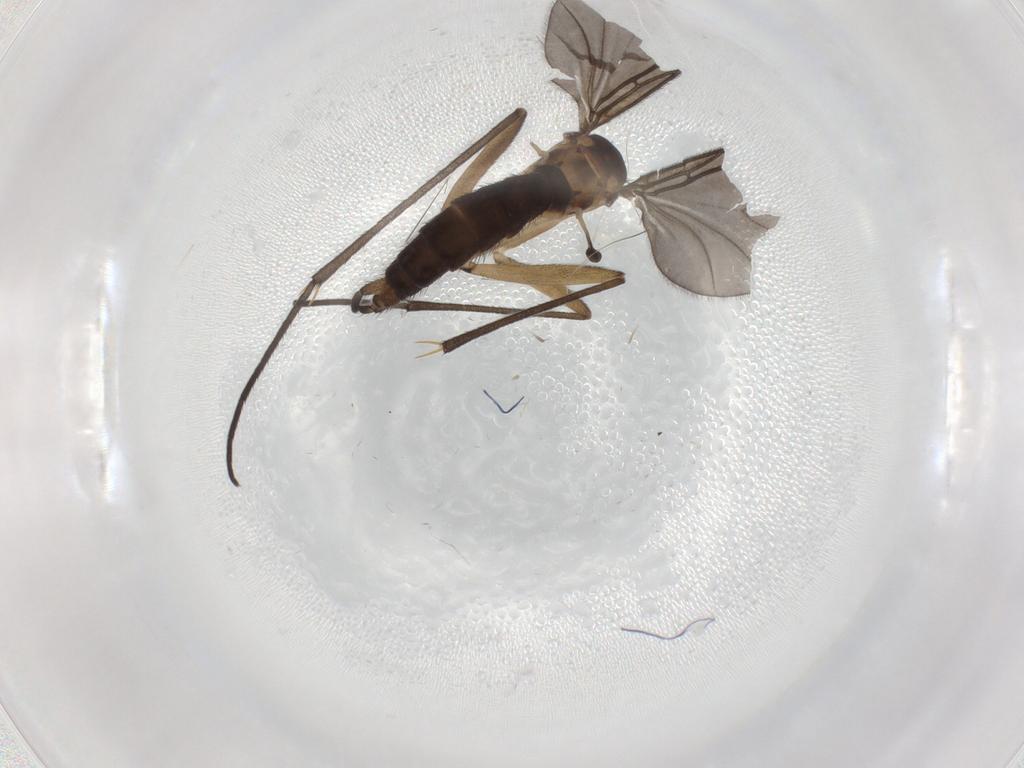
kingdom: Animalia
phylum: Arthropoda
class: Insecta
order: Diptera
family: Sciaridae
